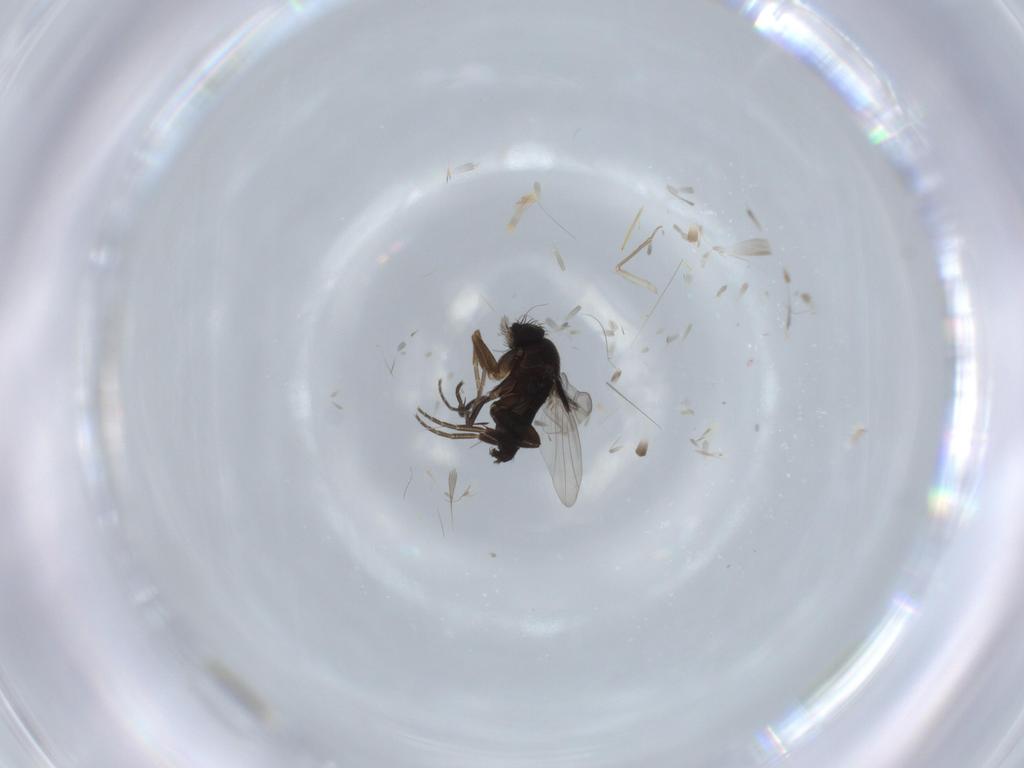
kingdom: Animalia
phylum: Arthropoda
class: Insecta
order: Diptera
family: Phoridae
